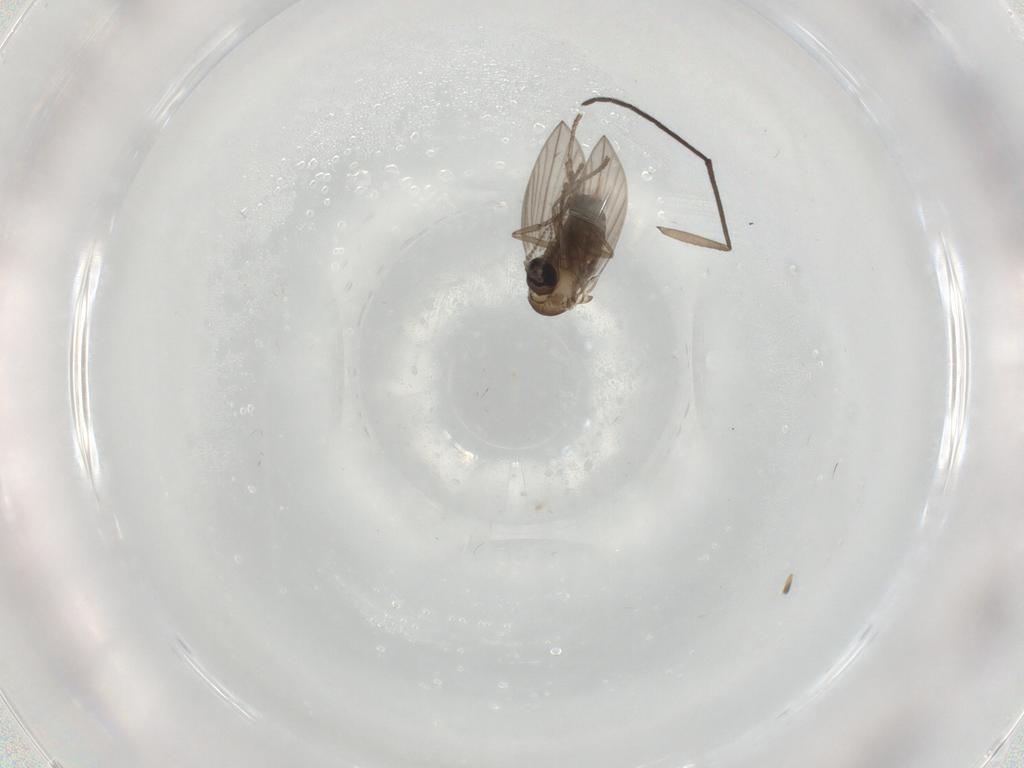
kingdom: Animalia
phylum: Arthropoda
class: Insecta
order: Diptera
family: Psychodidae
